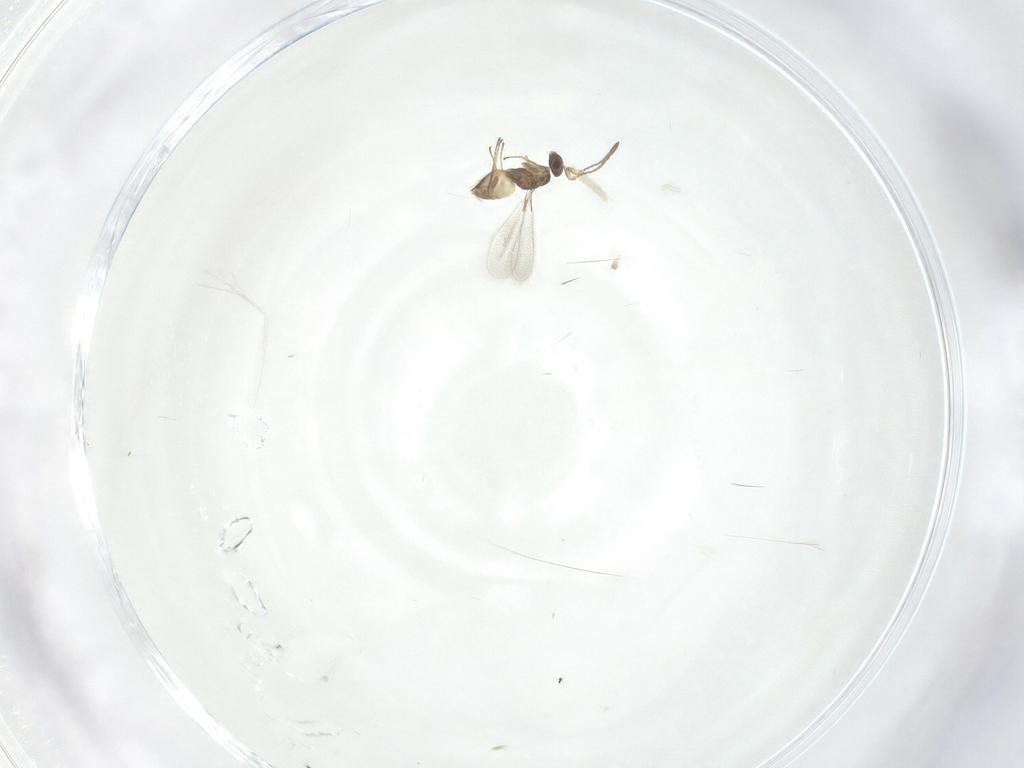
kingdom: Animalia
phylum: Arthropoda
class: Insecta
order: Hymenoptera
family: Mymaridae
